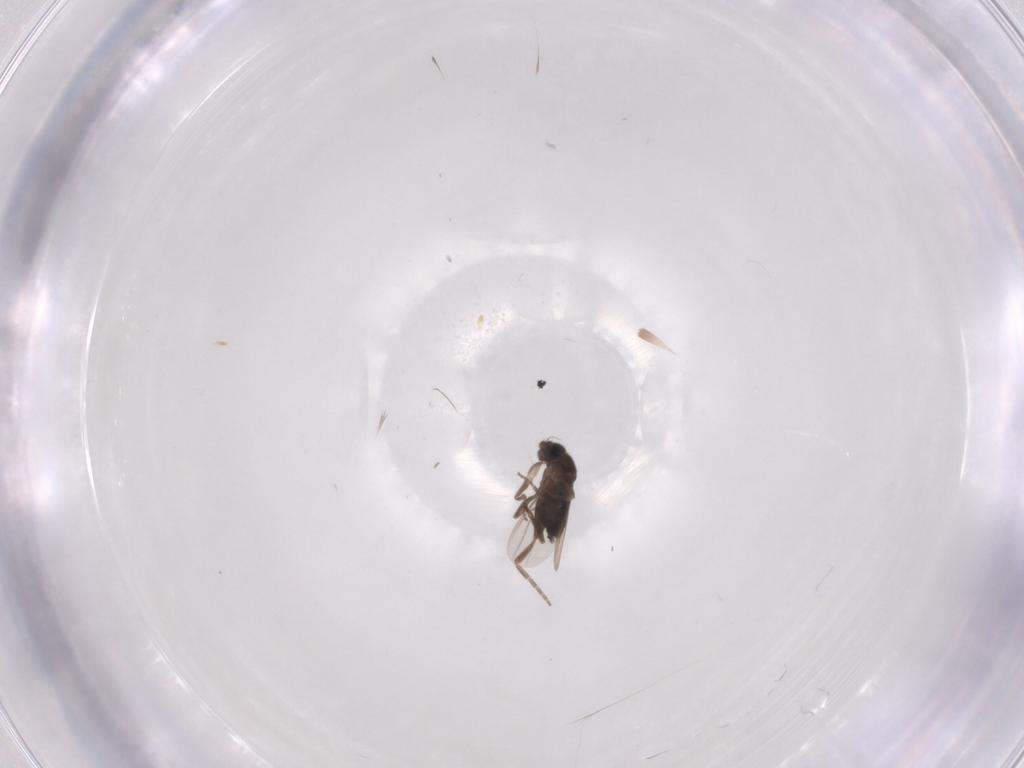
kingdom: Animalia
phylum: Arthropoda
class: Insecta
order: Diptera
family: Phoridae
